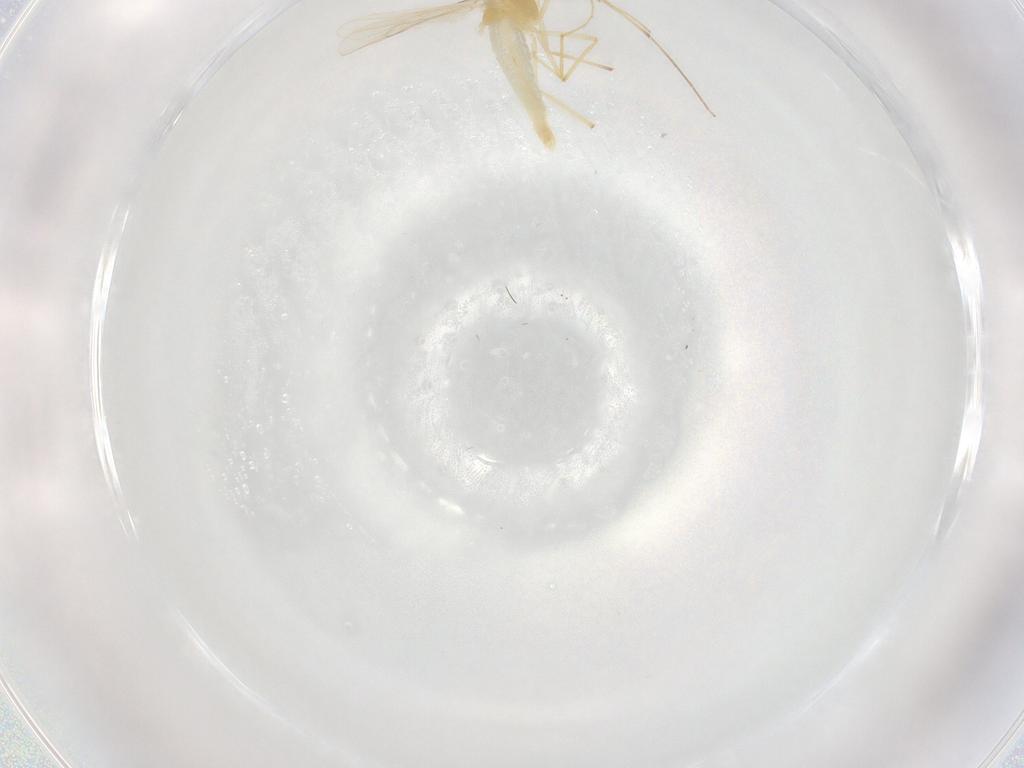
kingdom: Animalia
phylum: Arthropoda
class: Insecta
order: Diptera
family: Chironomidae
